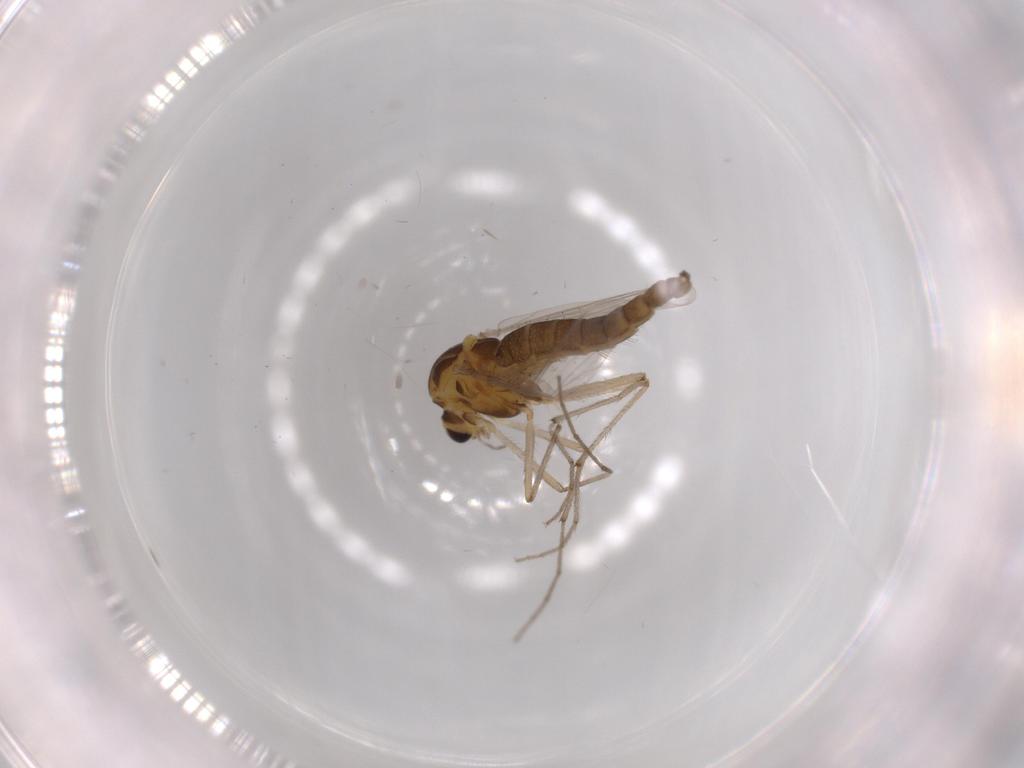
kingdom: Animalia
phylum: Arthropoda
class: Insecta
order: Diptera
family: Chironomidae
